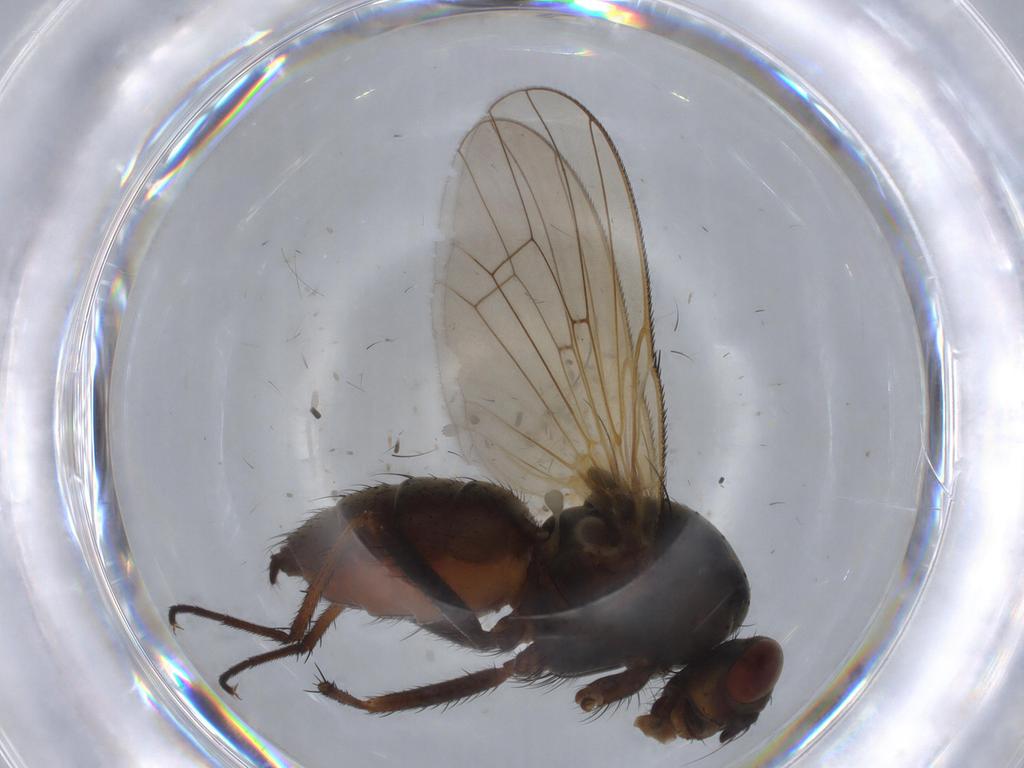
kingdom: Animalia
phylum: Arthropoda
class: Insecta
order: Diptera
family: Anthomyiidae
